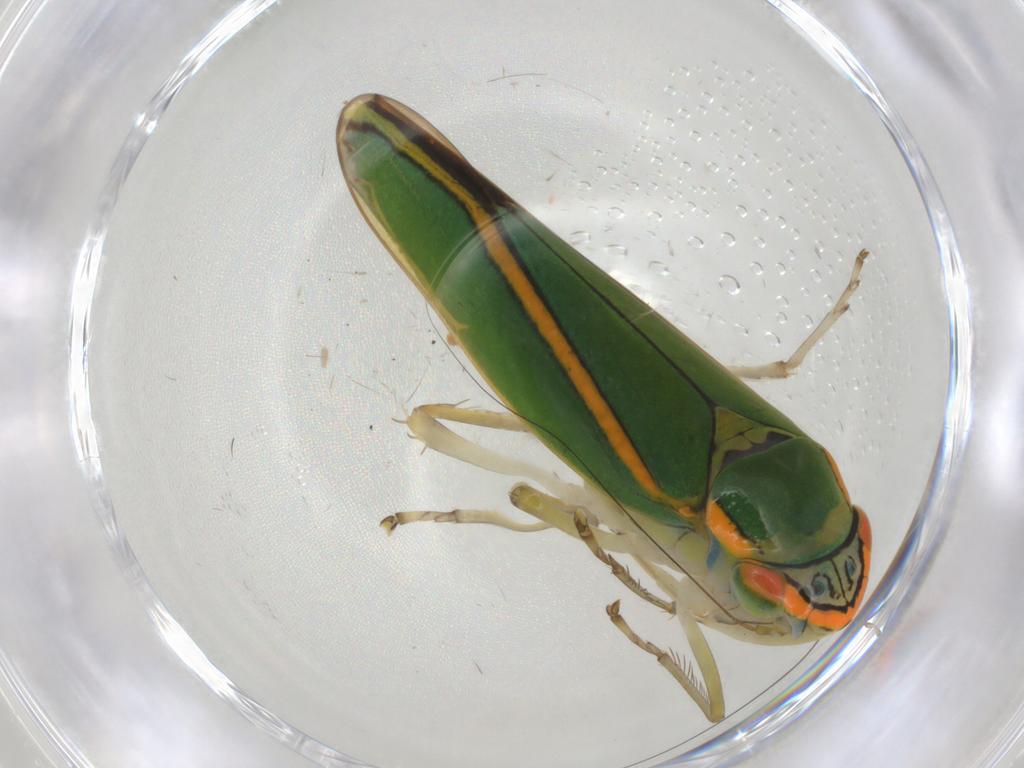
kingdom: Animalia
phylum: Arthropoda
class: Insecta
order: Hemiptera
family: Cicadellidae
